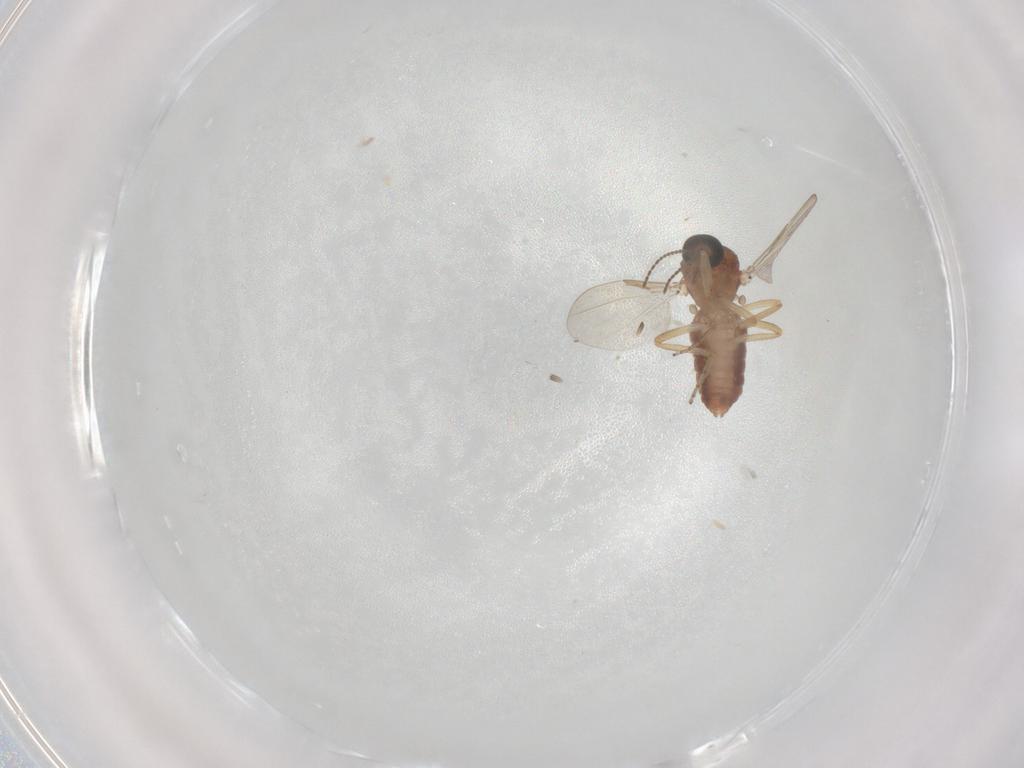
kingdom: Animalia
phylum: Arthropoda
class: Insecta
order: Diptera
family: Ceratopogonidae
